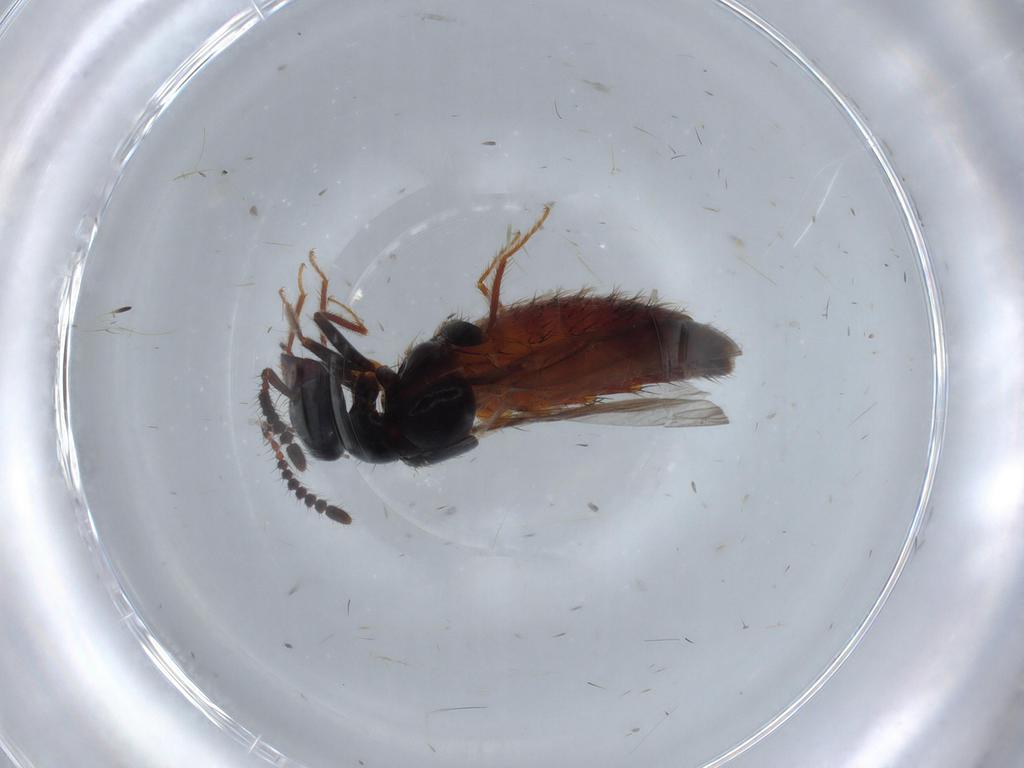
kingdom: Animalia
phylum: Arthropoda
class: Insecta
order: Coleoptera
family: Staphylinidae
